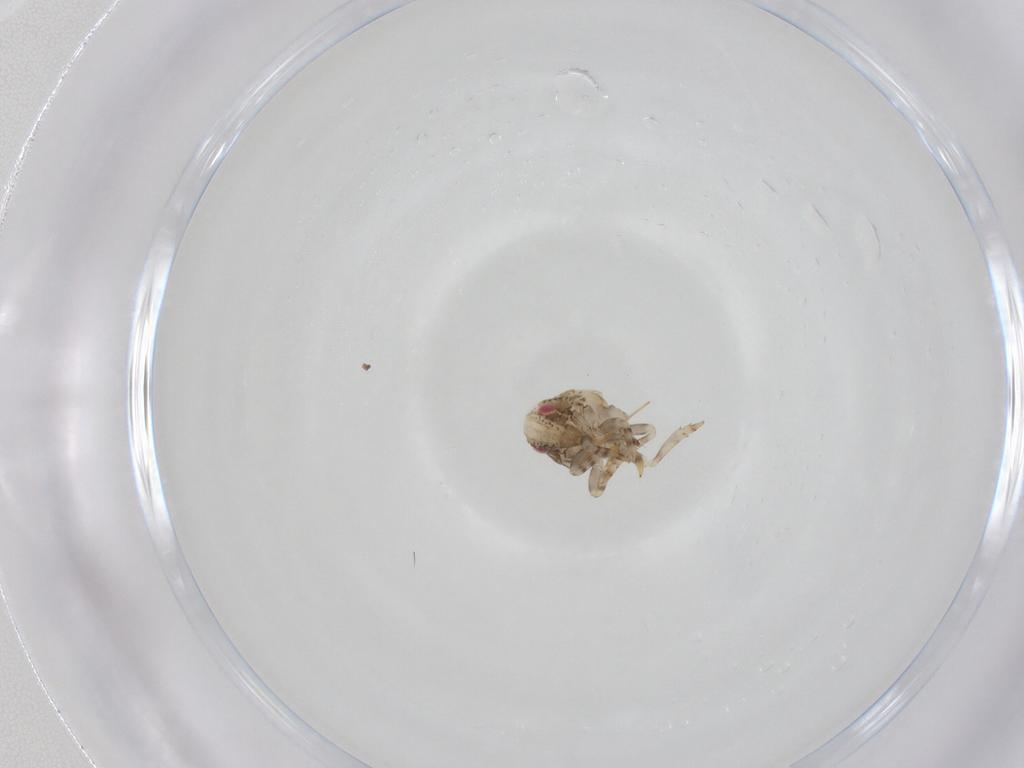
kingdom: Animalia
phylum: Arthropoda
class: Insecta
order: Hemiptera
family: Acanaloniidae
